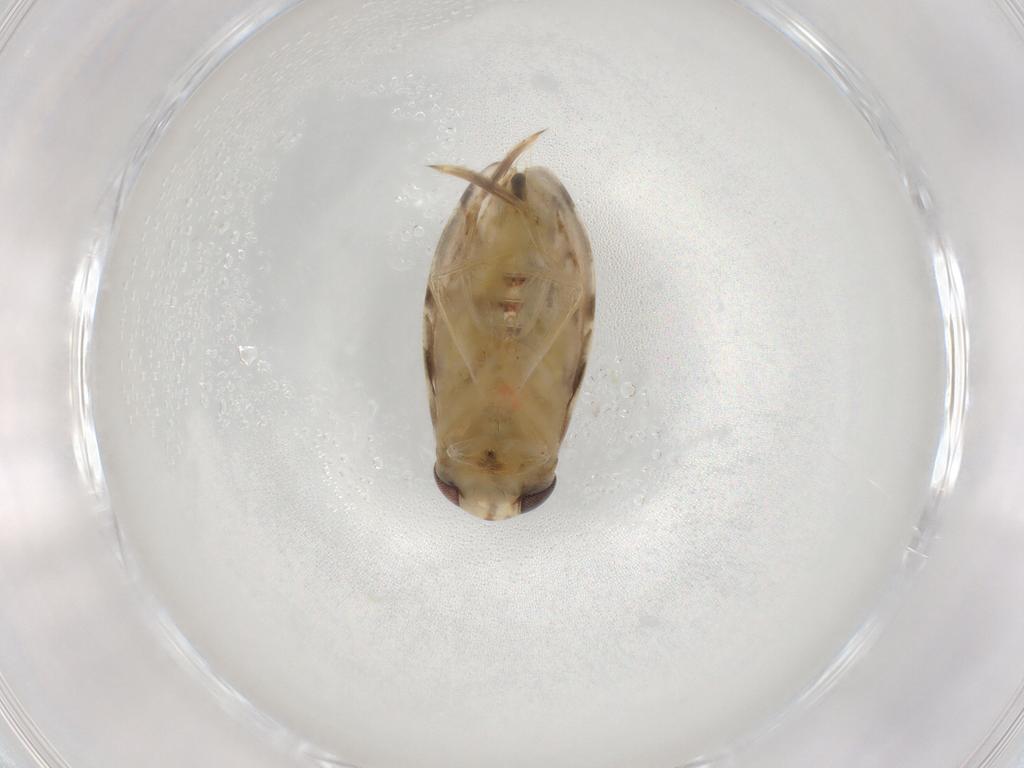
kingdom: Animalia
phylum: Arthropoda
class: Insecta
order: Hemiptera
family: Corixidae
